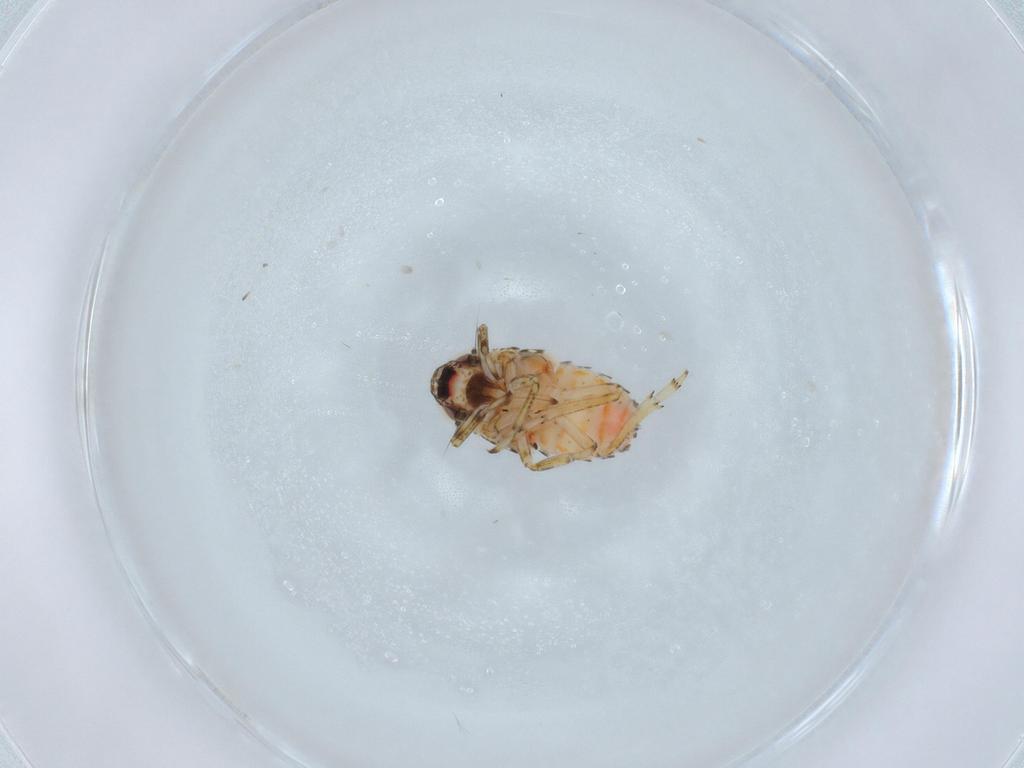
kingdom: Animalia
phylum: Arthropoda
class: Insecta
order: Hemiptera
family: Issidae
